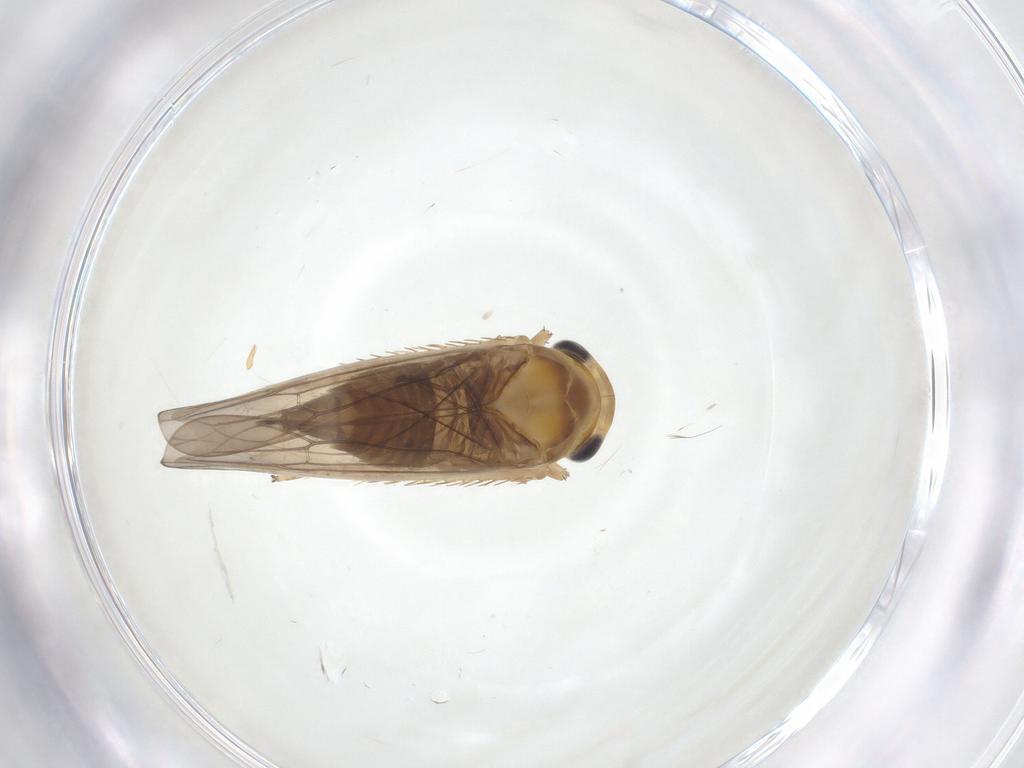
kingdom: Animalia
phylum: Arthropoda
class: Insecta
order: Hemiptera
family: Cicadellidae
